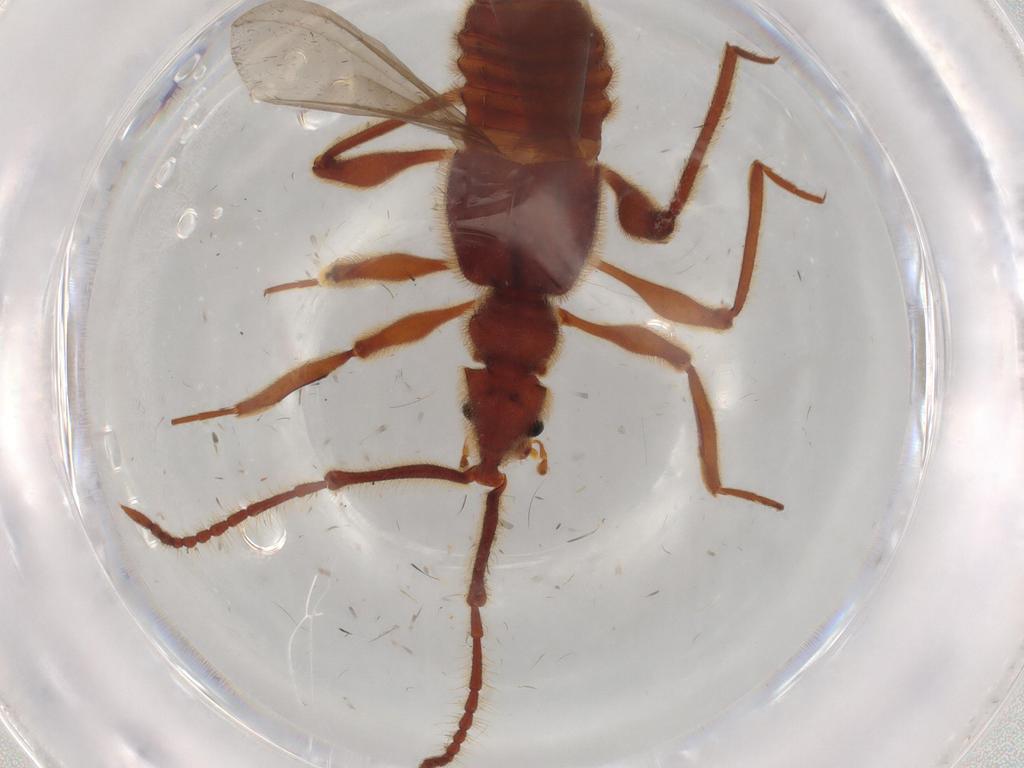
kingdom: Animalia
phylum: Arthropoda
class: Insecta
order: Coleoptera
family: Staphylinidae
